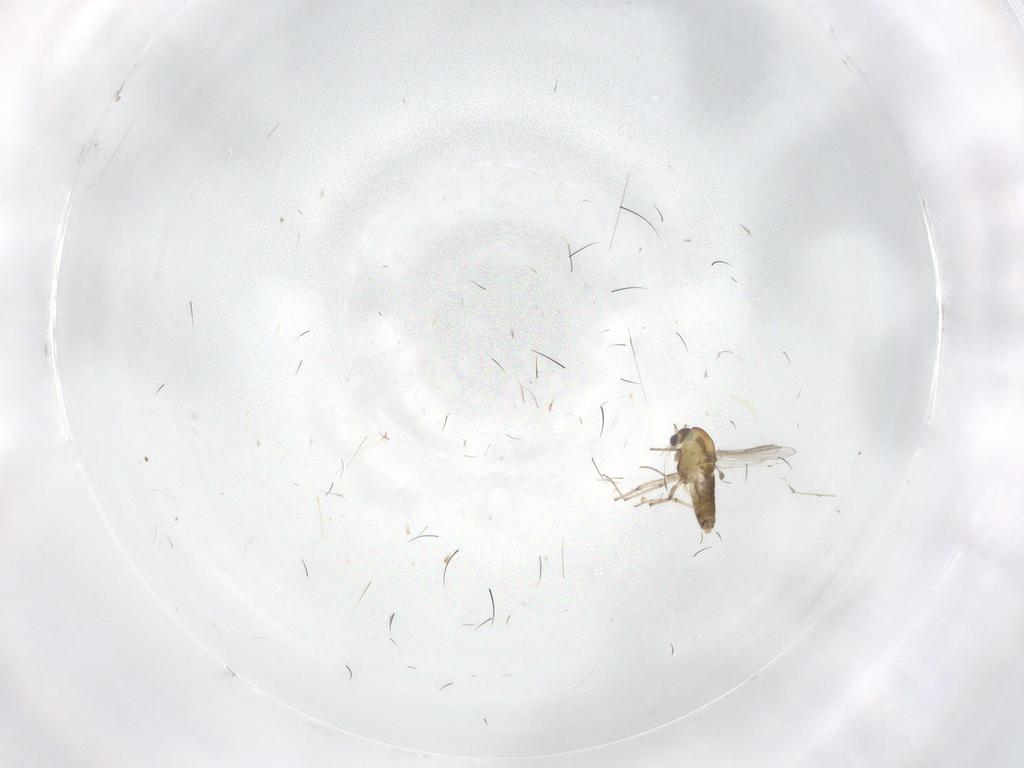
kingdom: Animalia
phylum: Arthropoda
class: Insecta
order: Diptera
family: Chironomidae
